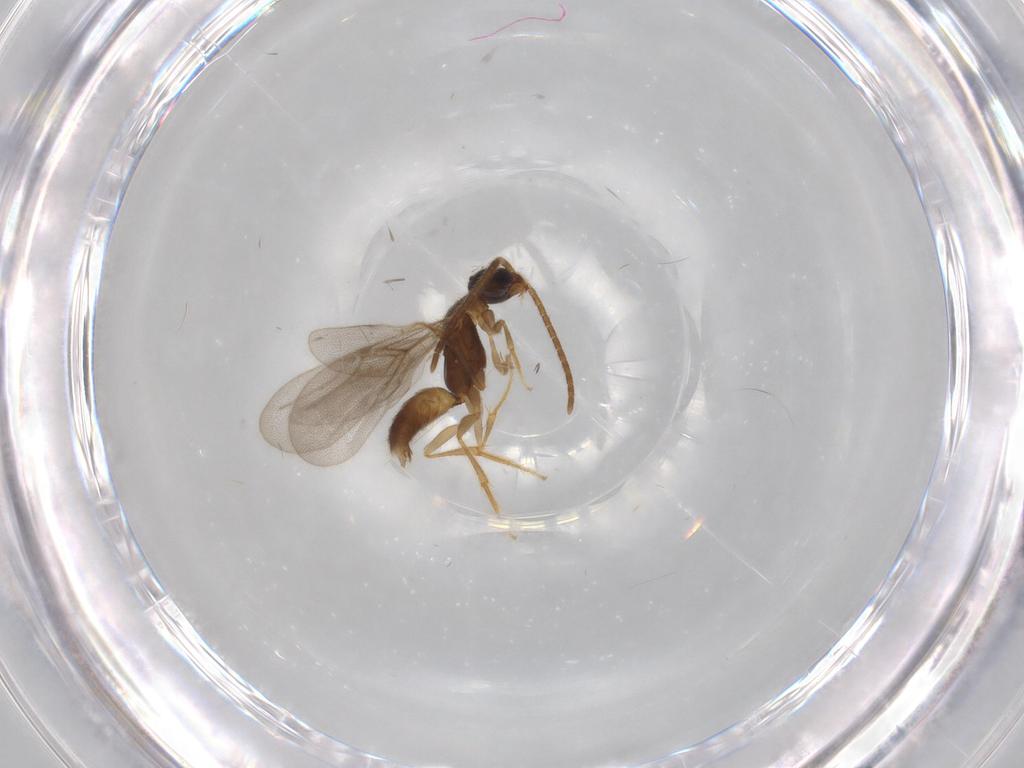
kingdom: Animalia
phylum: Arthropoda
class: Insecta
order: Hymenoptera
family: Bethylidae
